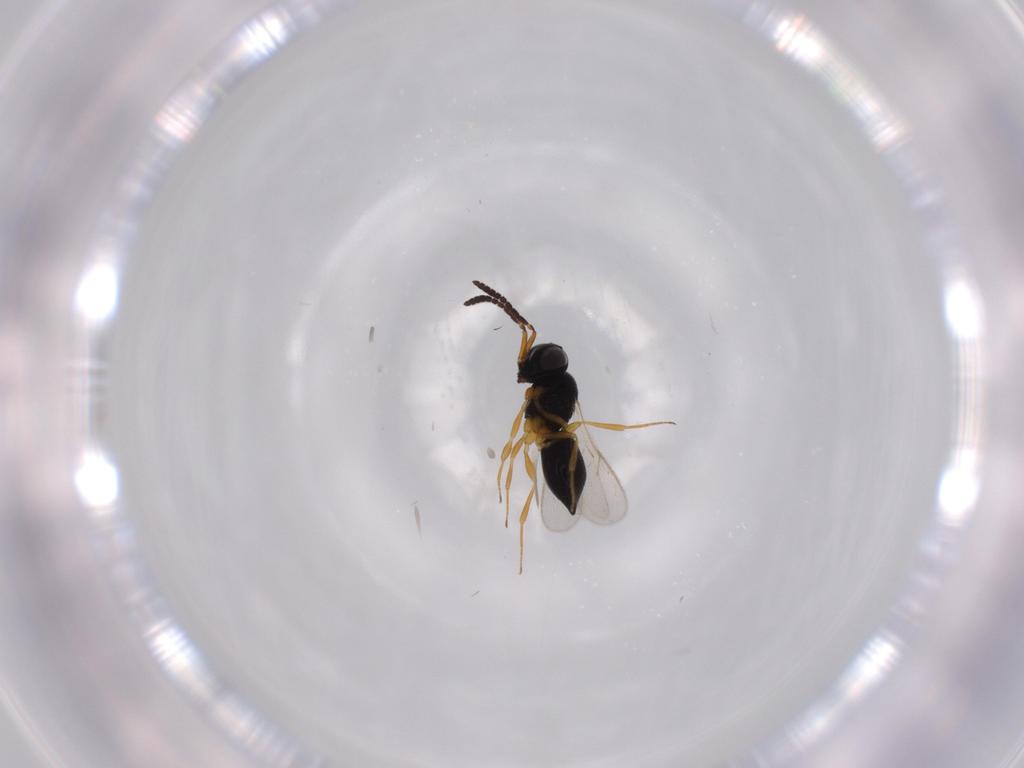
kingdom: Animalia
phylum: Arthropoda
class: Insecta
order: Hymenoptera
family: Scelionidae
